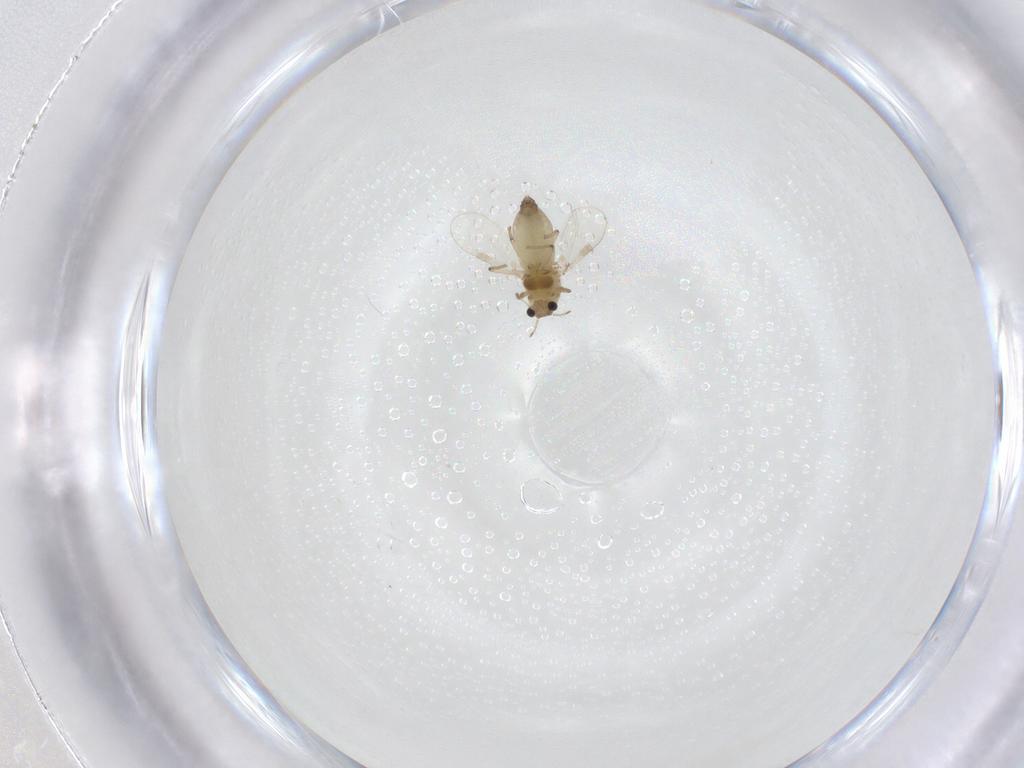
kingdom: Animalia
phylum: Arthropoda
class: Insecta
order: Diptera
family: Chironomidae
